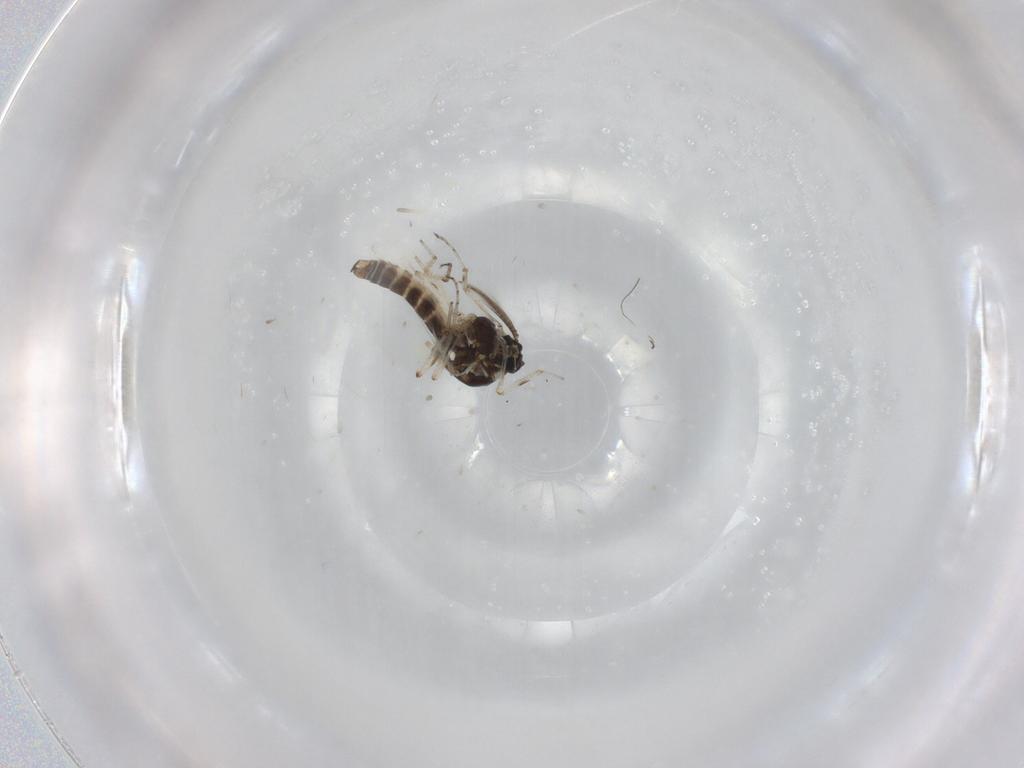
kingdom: Animalia
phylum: Arthropoda
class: Insecta
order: Diptera
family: Ceratopogonidae
